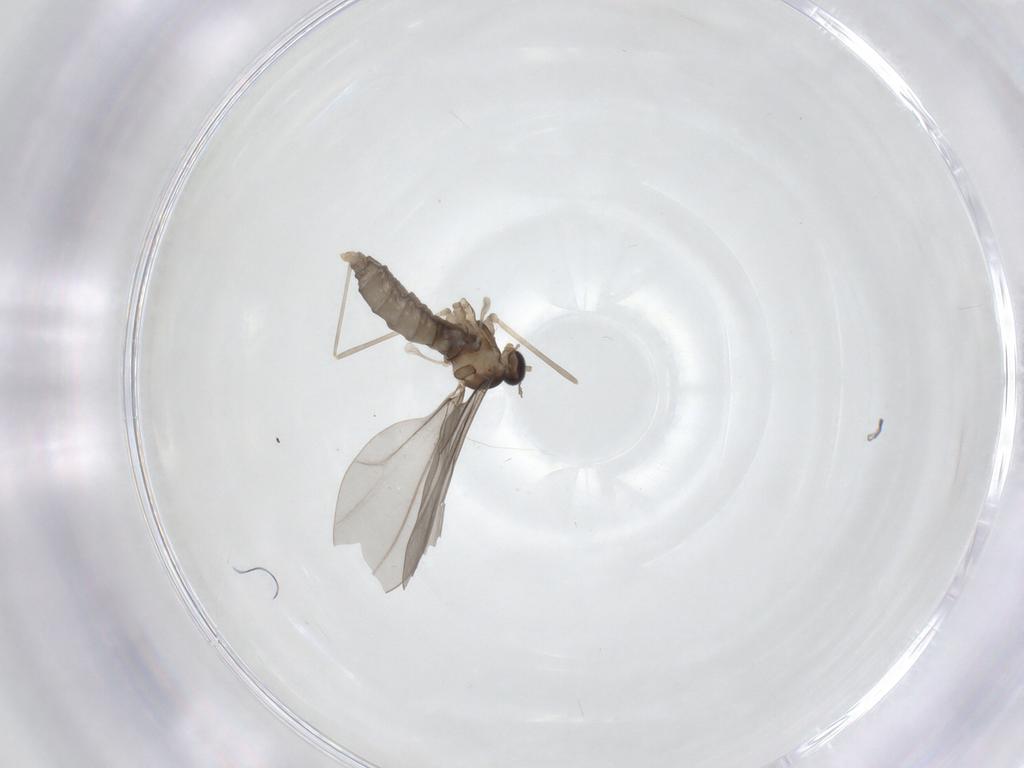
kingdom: Animalia
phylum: Arthropoda
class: Insecta
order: Diptera
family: Cecidomyiidae
